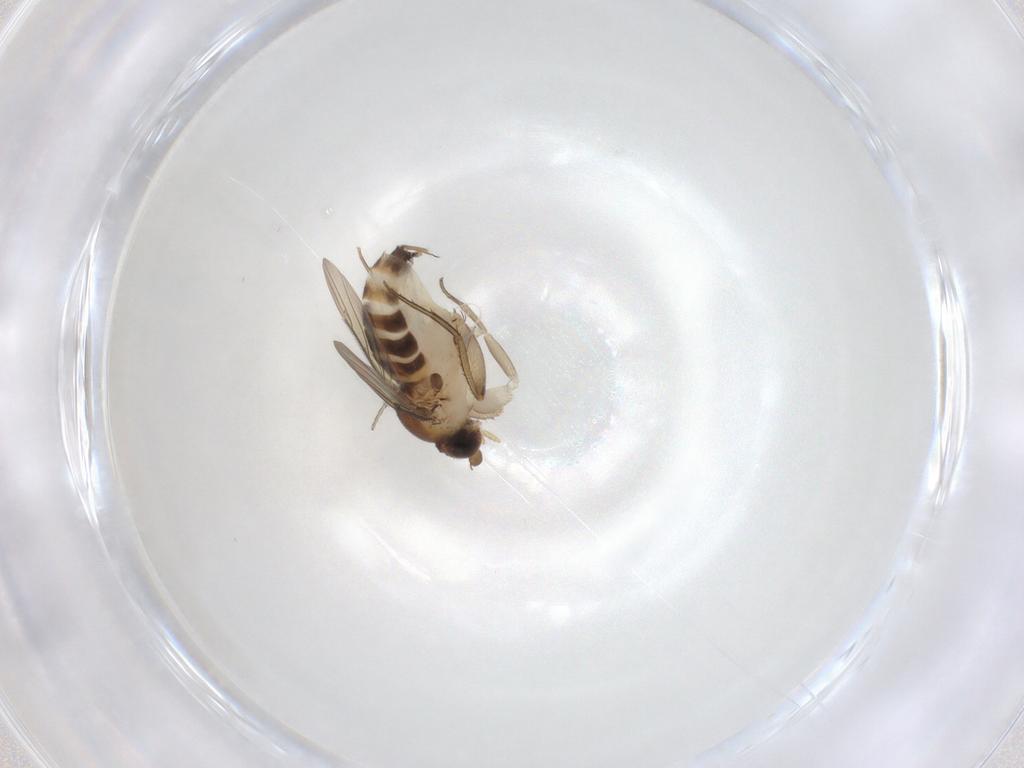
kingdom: Animalia
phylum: Arthropoda
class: Insecta
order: Diptera
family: Phoridae
